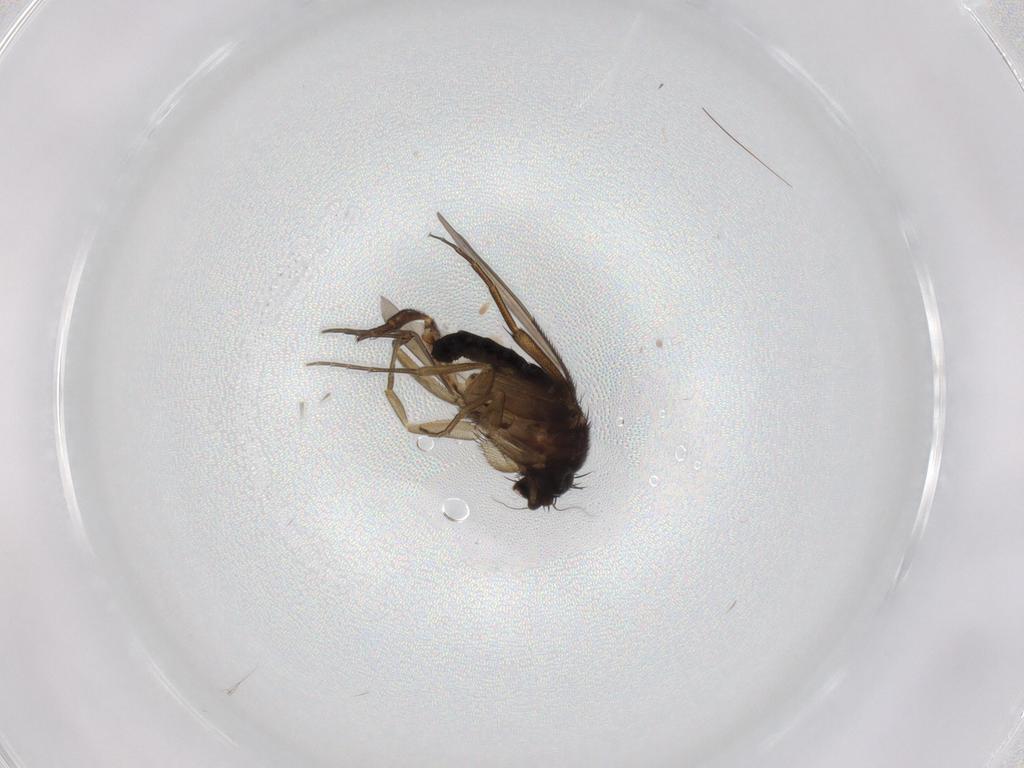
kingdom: Animalia
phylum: Arthropoda
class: Insecta
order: Diptera
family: Phoridae
